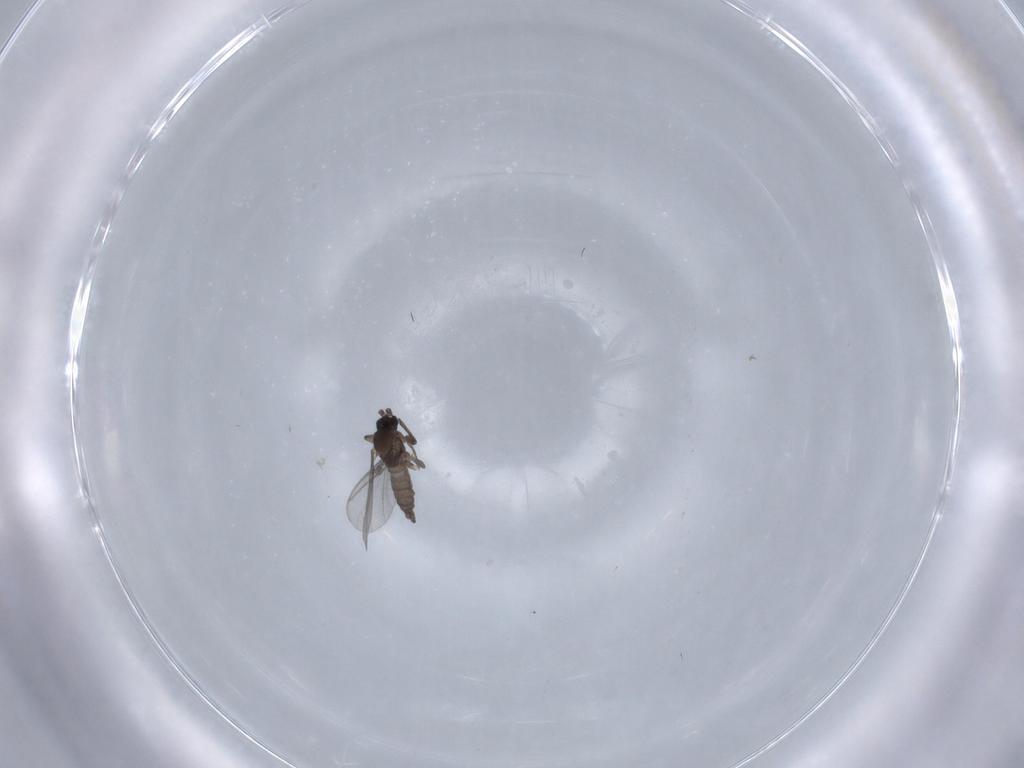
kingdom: Animalia
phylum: Arthropoda
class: Insecta
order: Diptera
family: Sciaridae
